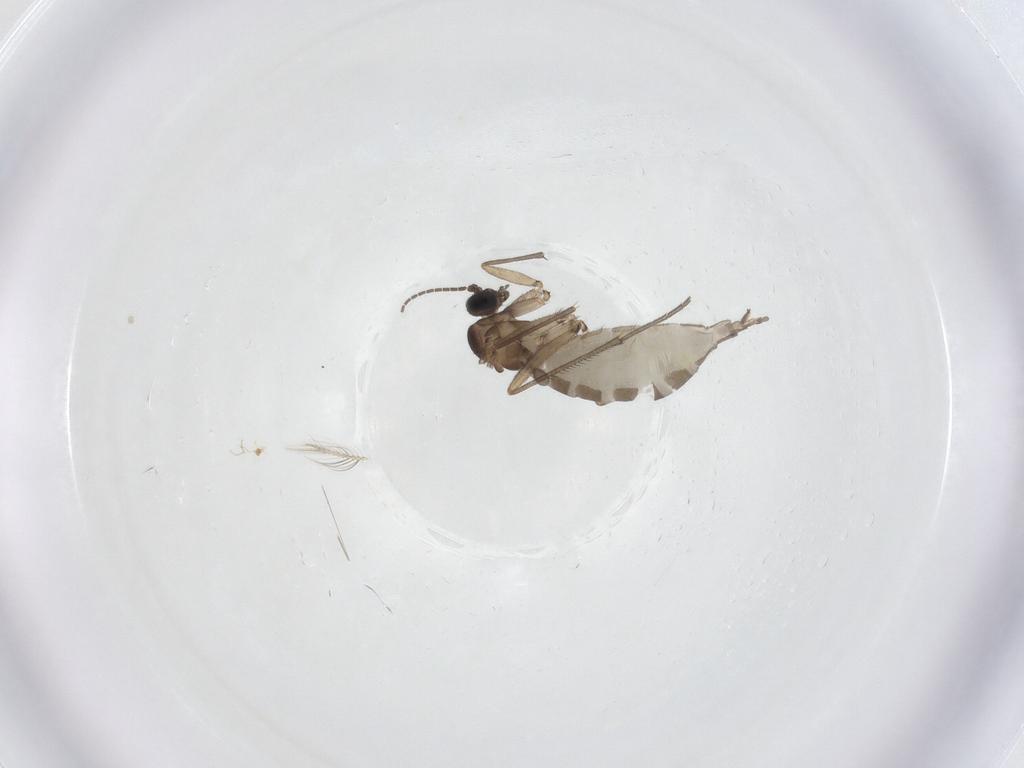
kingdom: Animalia
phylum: Arthropoda
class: Insecta
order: Diptera
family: Sciaridae
